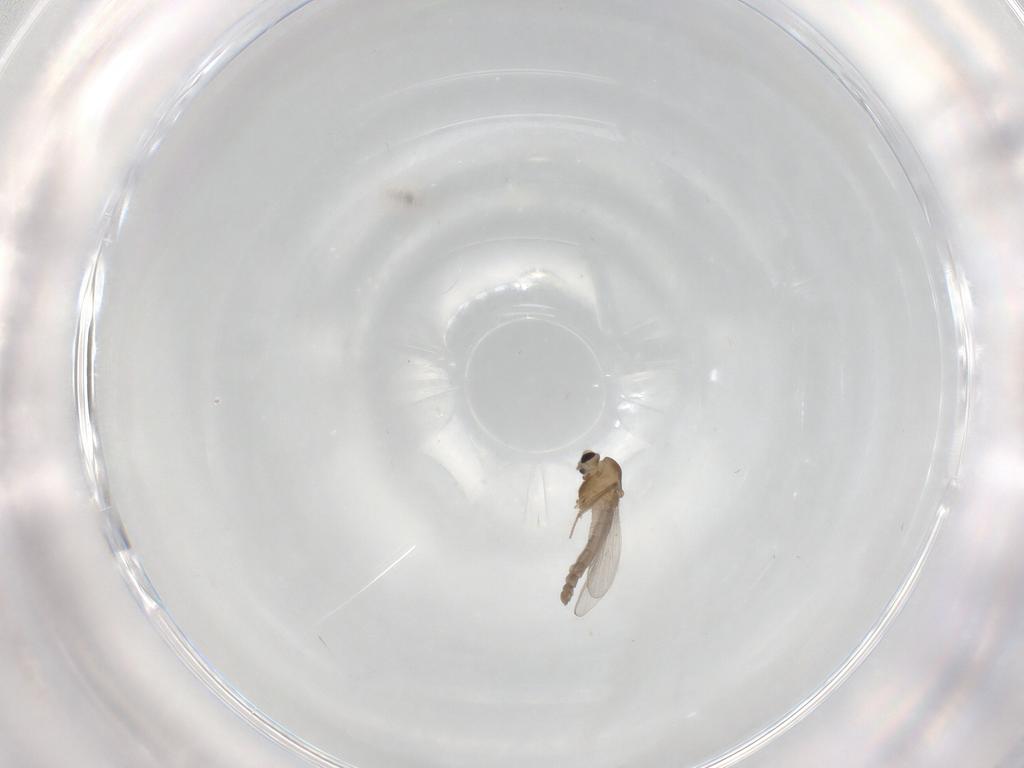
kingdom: Animalia
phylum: Arthropoda
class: Insecta
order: Diptera
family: Chironomidae
